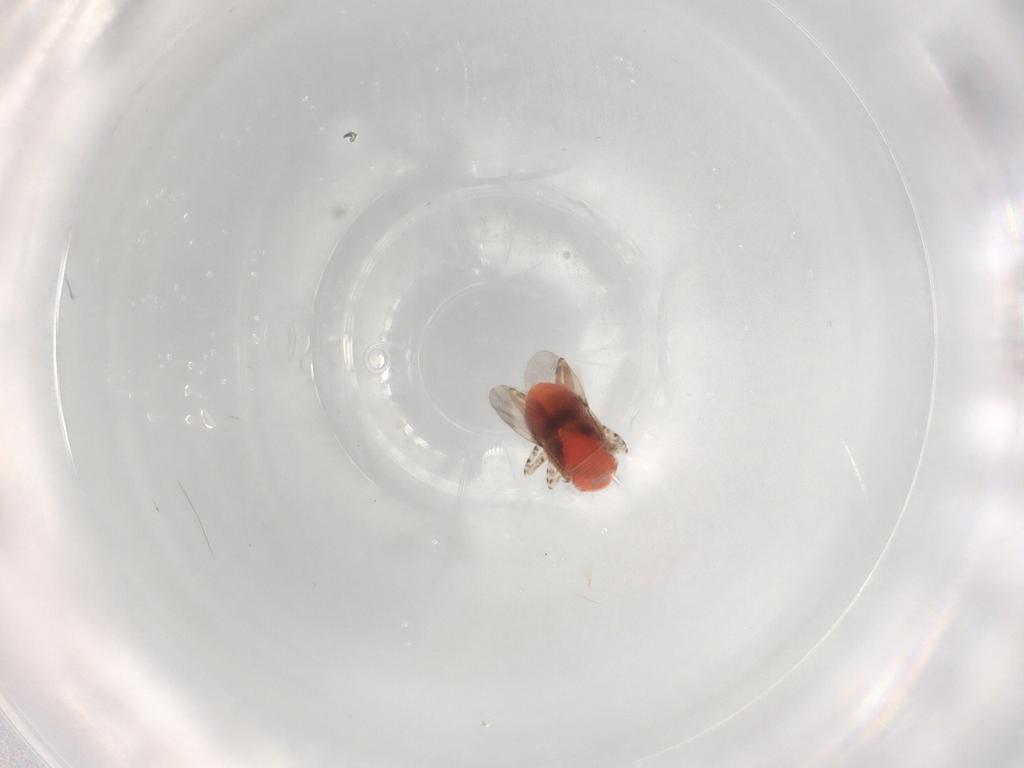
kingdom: Animalia
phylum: Arthropoda
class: Insecta
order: Hymenoptera
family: Encyrtidae
